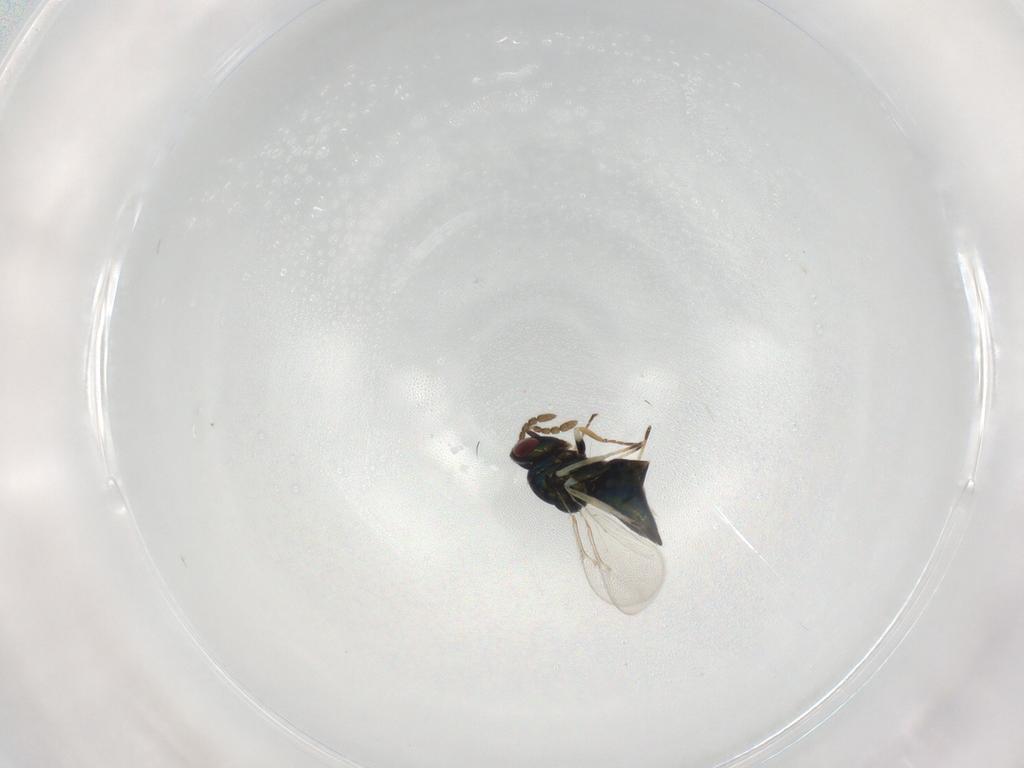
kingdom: Animalia
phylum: Arthropoda
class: Insecta
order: Hymenoptera
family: Eulophidae
